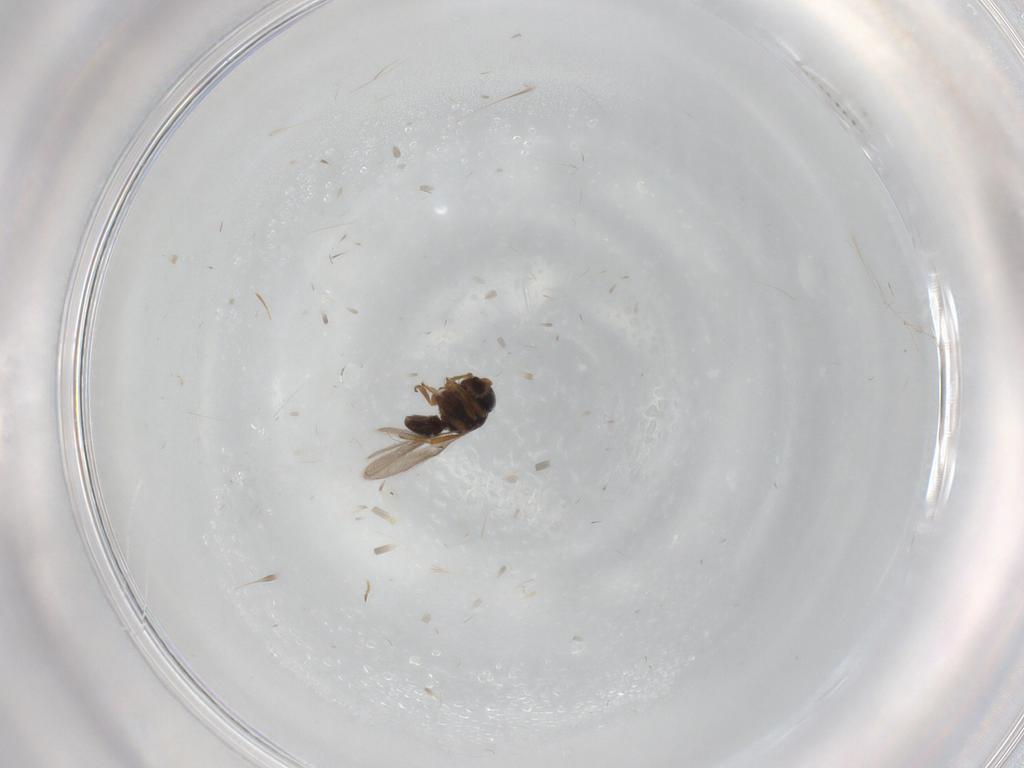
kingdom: Animalia
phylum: Arthropoda
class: Insecta
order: Hymenoptera
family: Scelionidae
